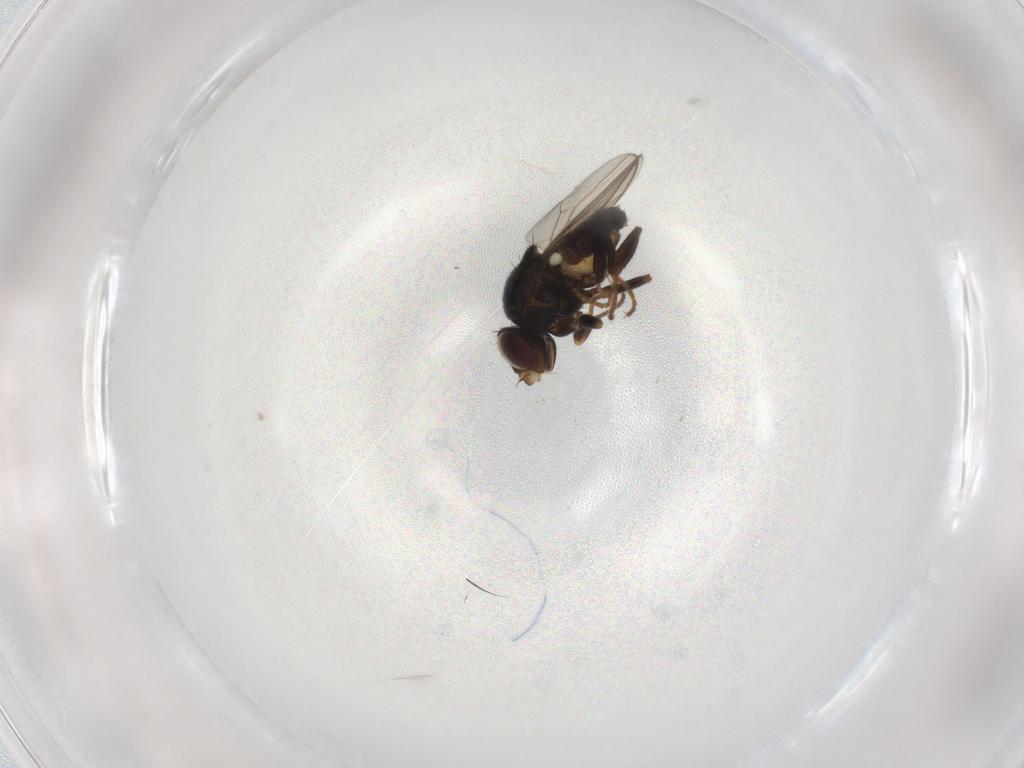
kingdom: Animalia
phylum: Arthropoda
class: Insecta
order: Diptera
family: Chloropidae
